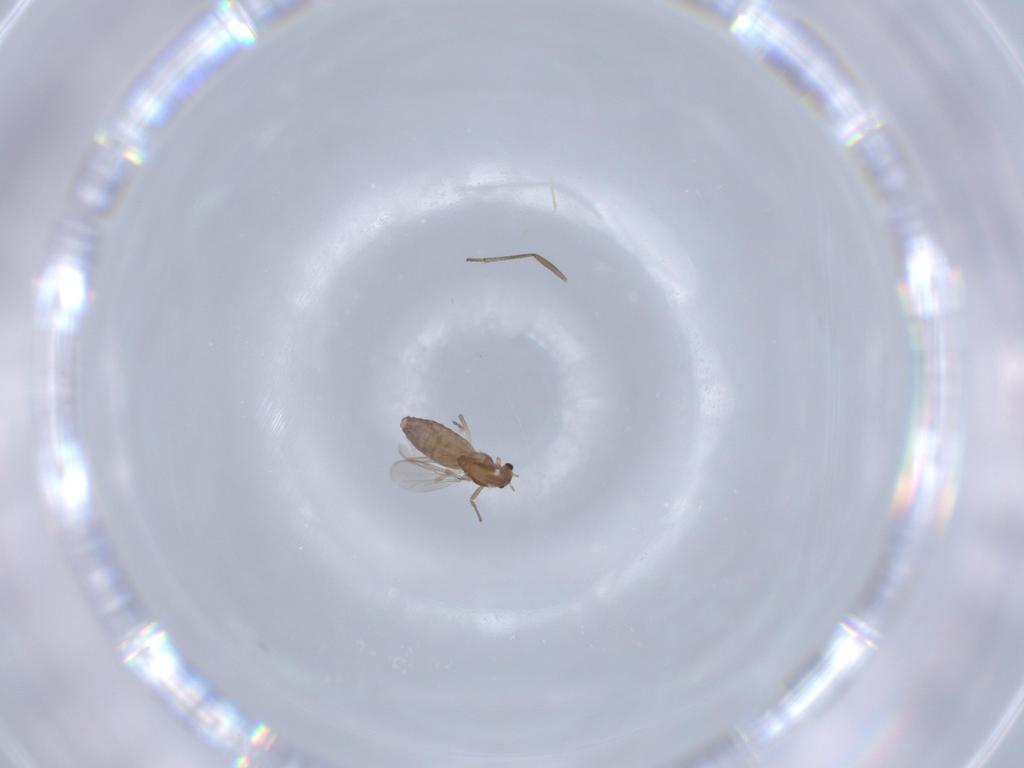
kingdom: Animalia
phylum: Arthropoda
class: Insecta
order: Diptera
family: Chironomidae
